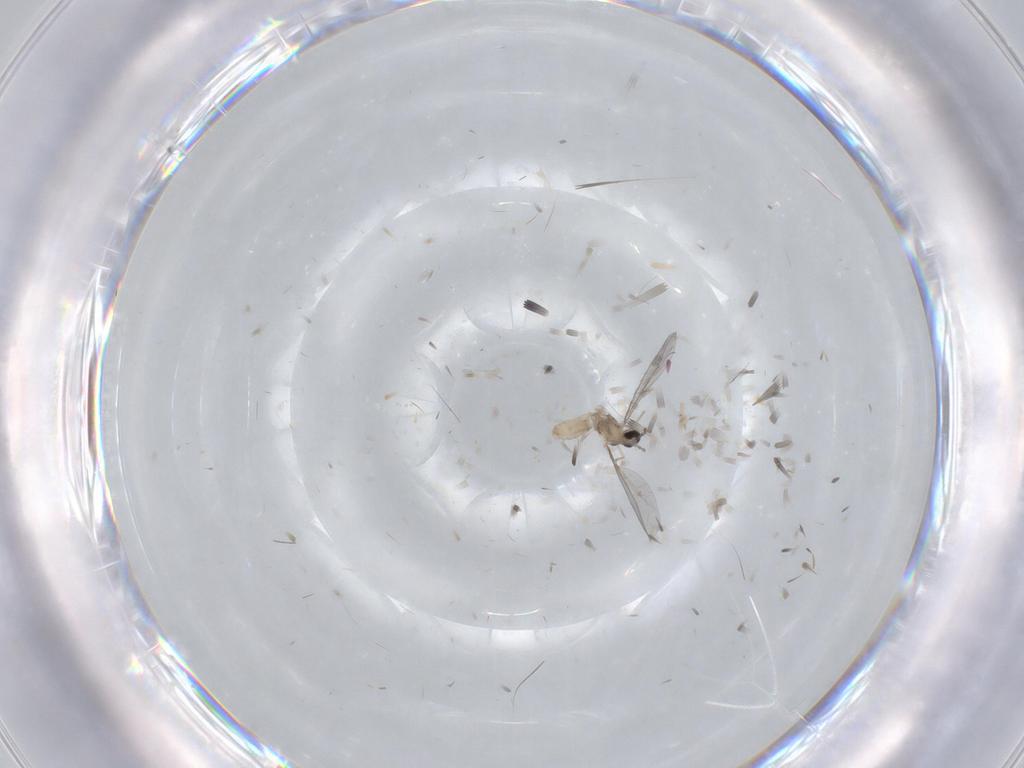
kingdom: Animalia
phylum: Arthropoda
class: Insecta
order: Diptera
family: Cecidomyiidae
